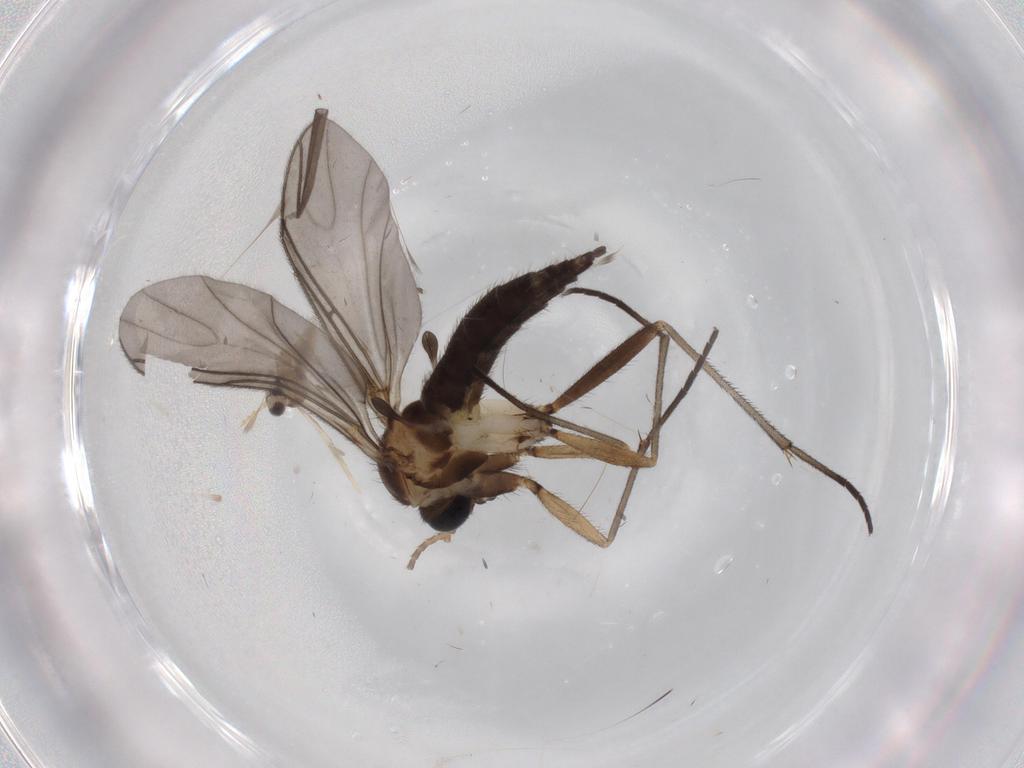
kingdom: Animalia
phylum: Arthropoda
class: Insecta
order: Diptera
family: Sciaridae
